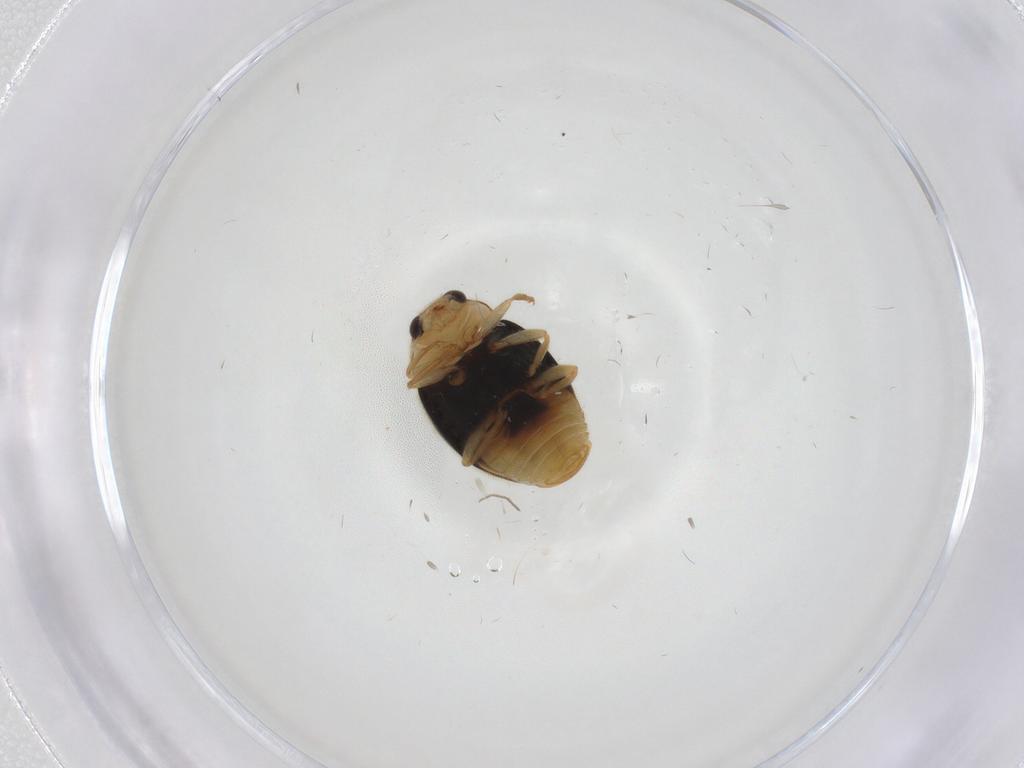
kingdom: Animalia
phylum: Arthropoda
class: Insecta
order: Coleoptera
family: Coccinellidae
